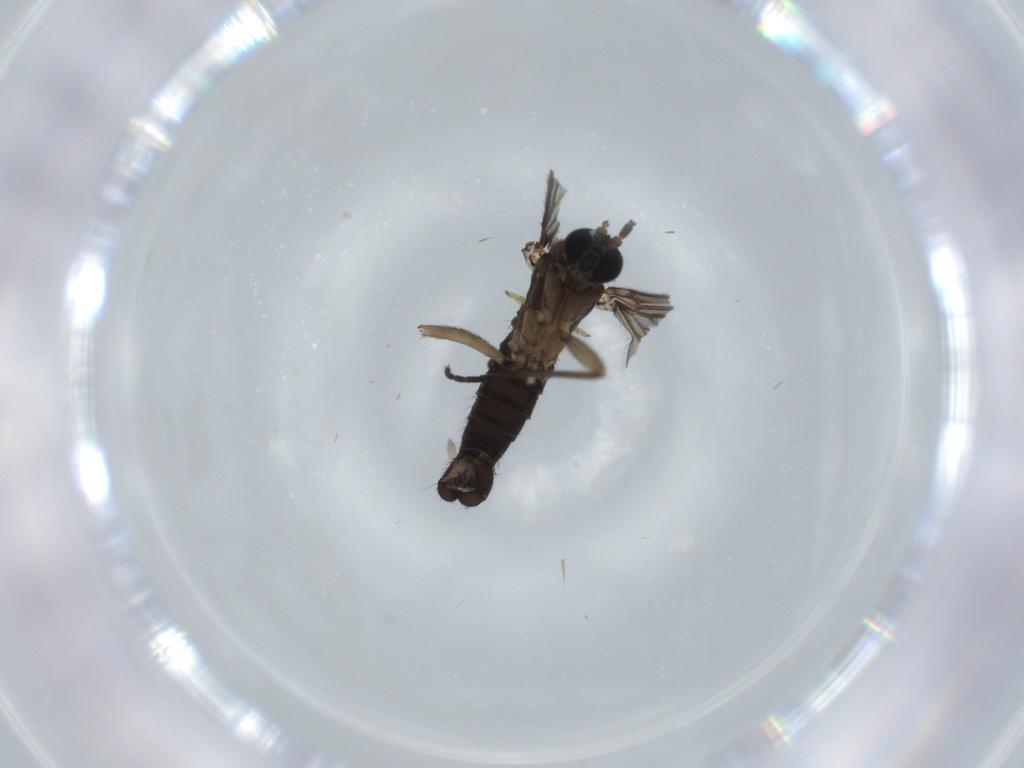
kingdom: Animalia
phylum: Arthropoda
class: Insecta
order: Diptera
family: Sciaridae
